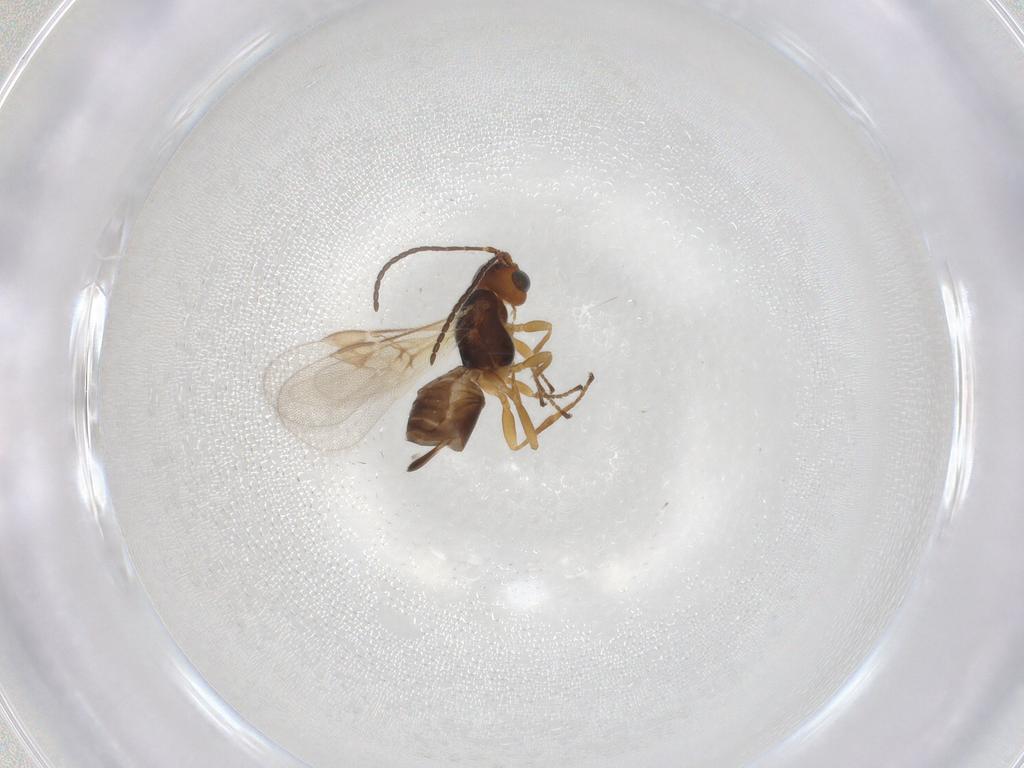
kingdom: Animalia
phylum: Arthropoda
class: Insecta
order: Hymenoptera
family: Braconidae
